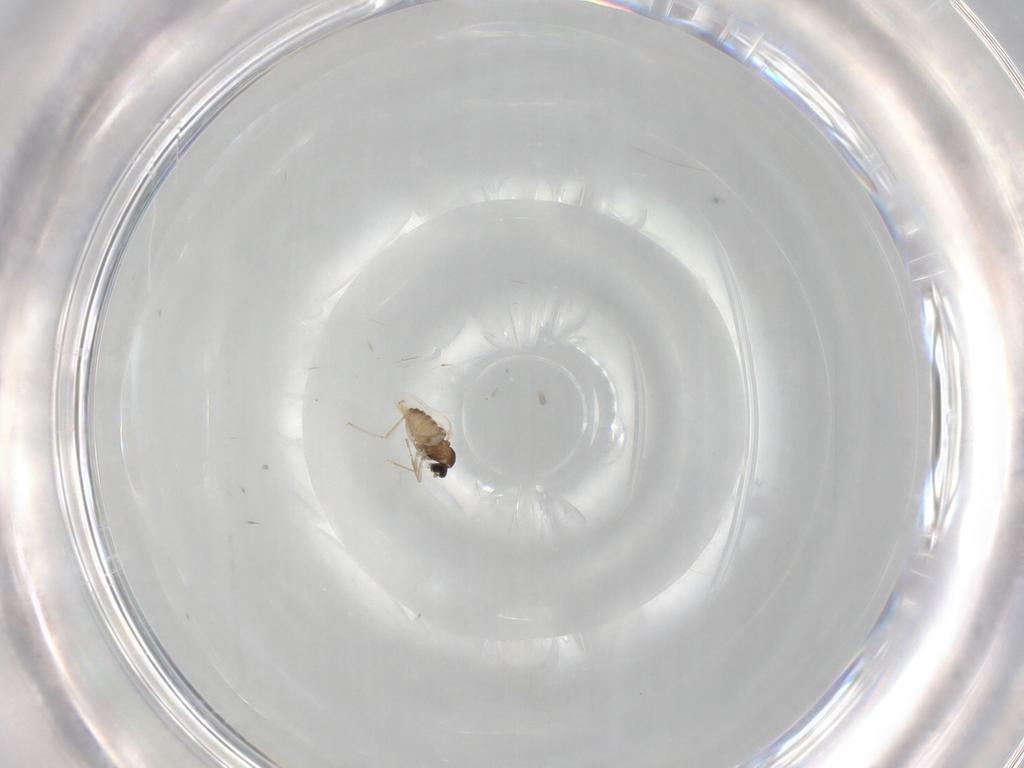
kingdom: Animalia
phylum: Arthropoda
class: Insecta
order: Diptera
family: Cecidomyiidae
